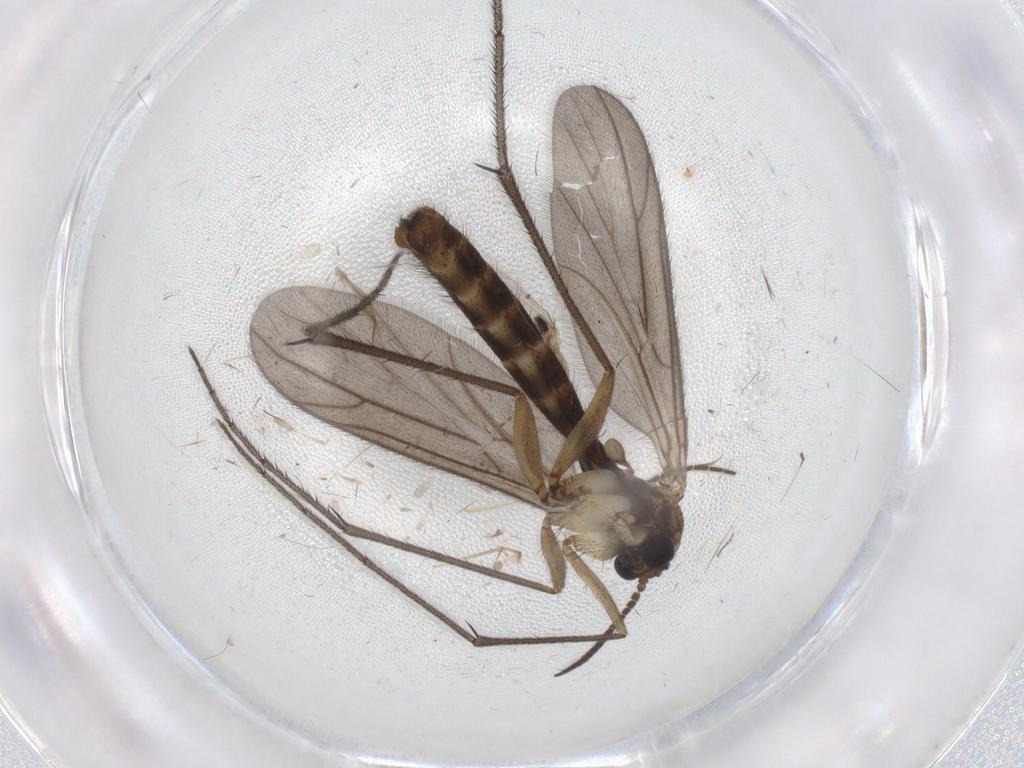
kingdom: Animalia
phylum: Arthropoda
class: Insecta
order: Diptera
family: Cecidomyiidae
